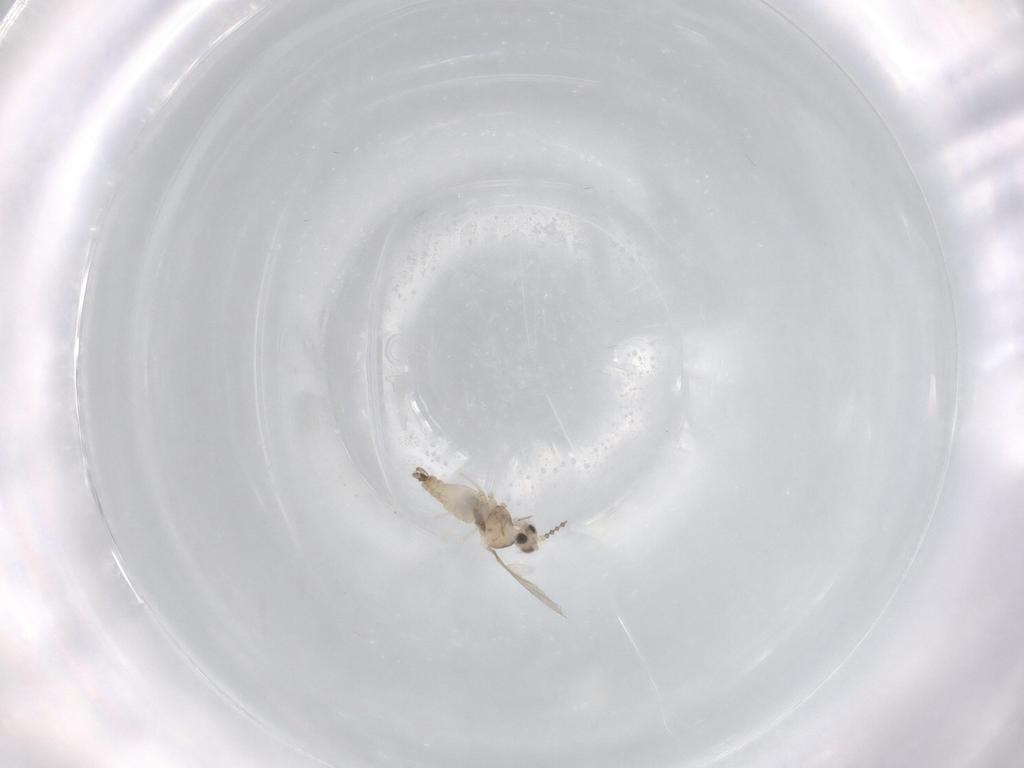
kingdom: Animalia
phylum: Arthropoda
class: Insecta
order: Diptera
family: Cecidomyiidae
